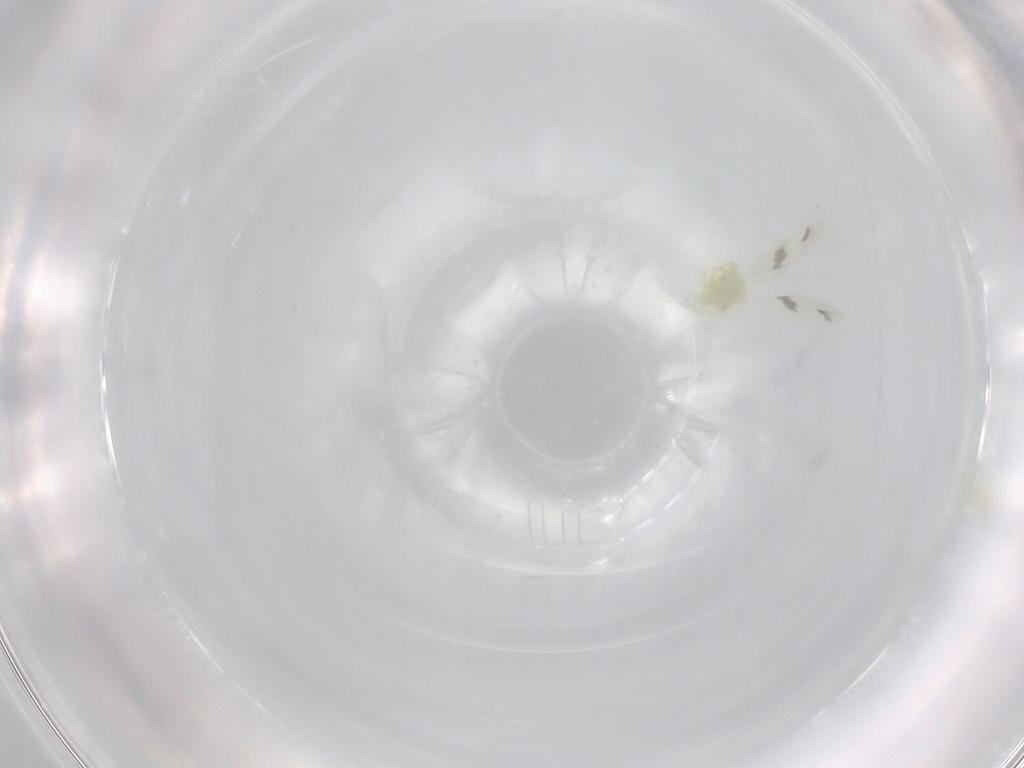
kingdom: Animalia
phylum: Arthropoda
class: Insecta
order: Hemiptera
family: Aleyrodidae
